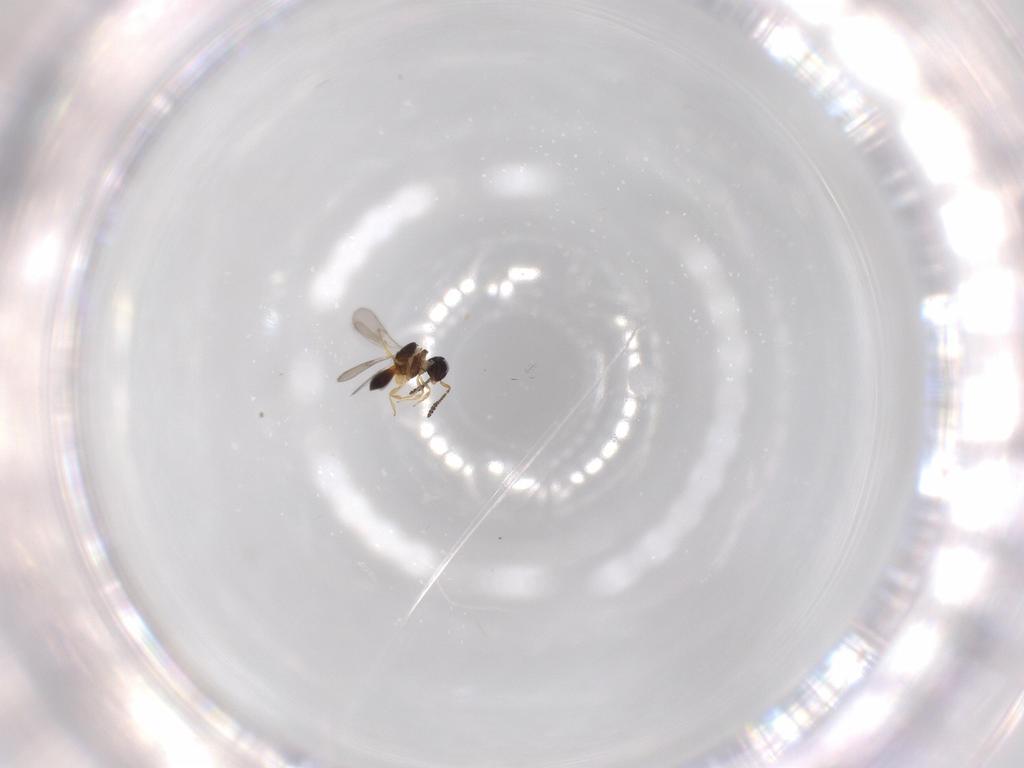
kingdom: Animalia
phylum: Arthropoda
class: Insecta
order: Hymenoptera
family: Scelionidae
